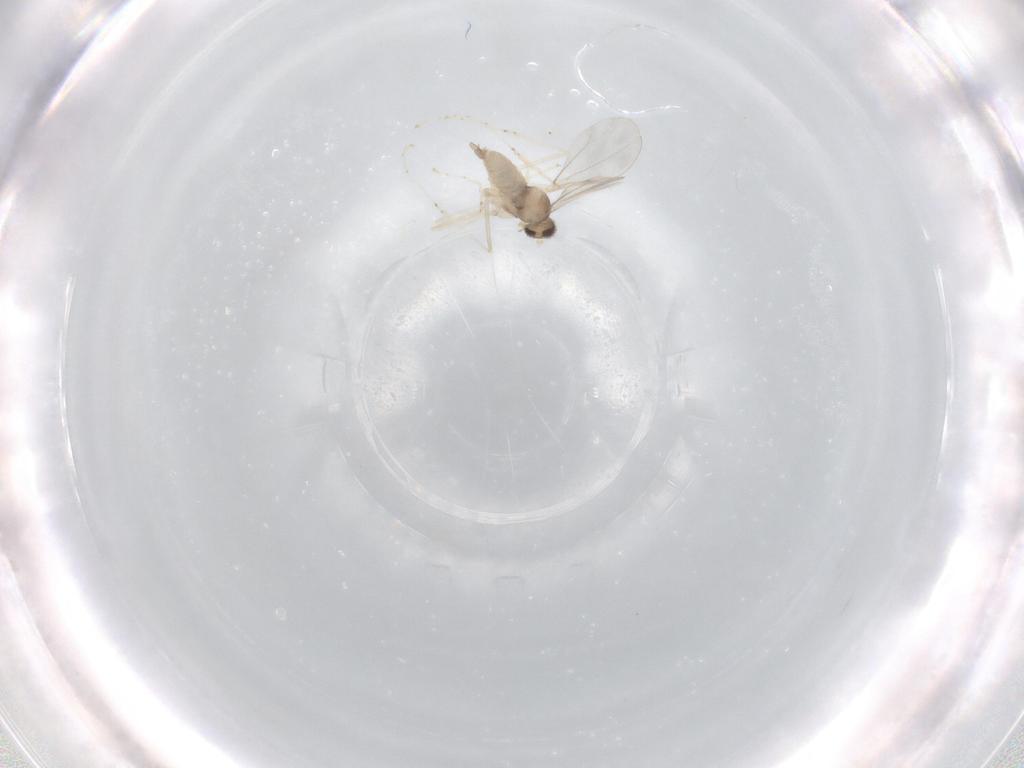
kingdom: Animalia
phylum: Arthropoda
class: Insecta
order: Diptera
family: Cecidomyiidae
